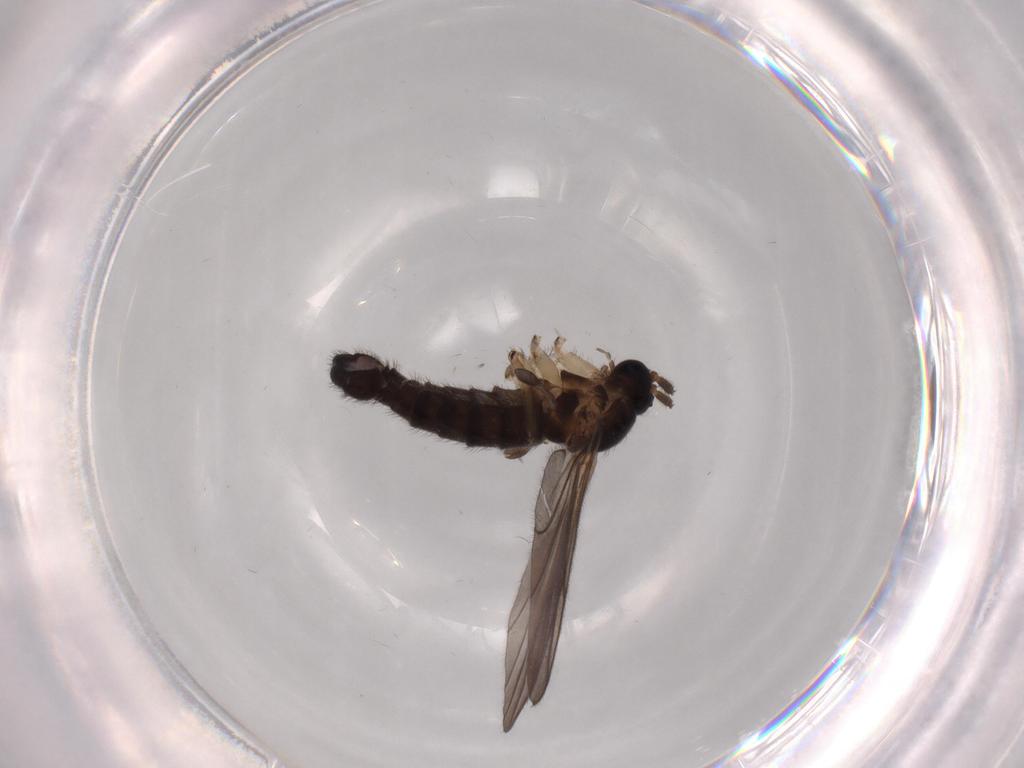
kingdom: Animalia
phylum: Arthropoda
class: Insecta
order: Diptera
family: Sciaridae
